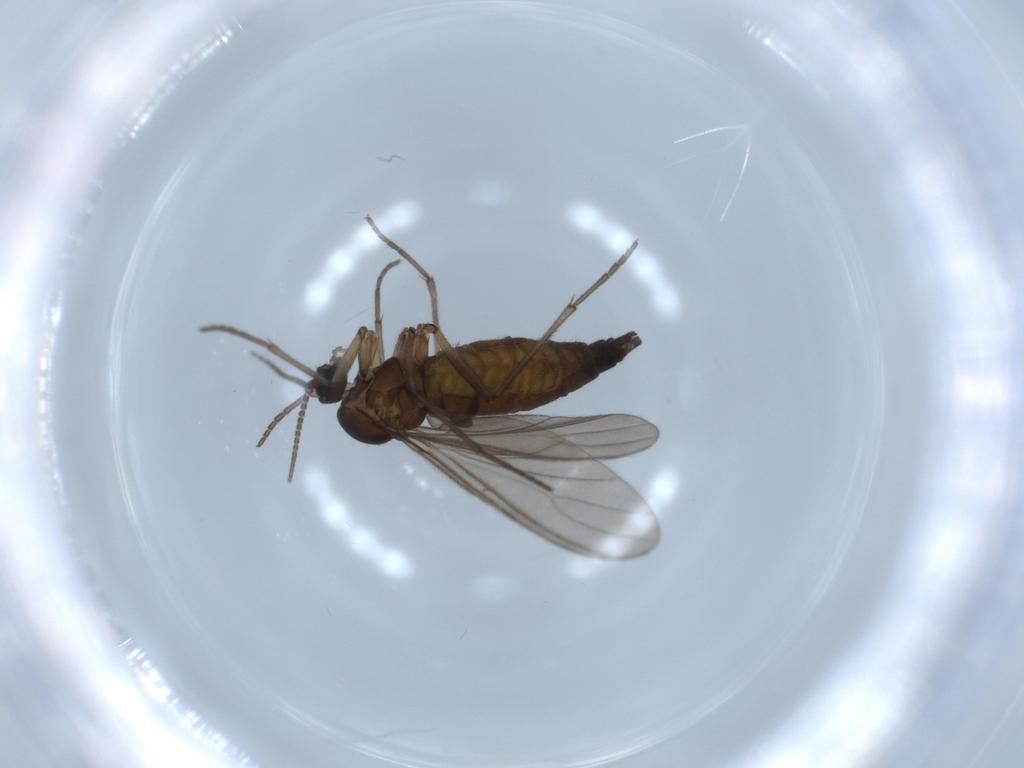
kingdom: Animalia
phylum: Arthropoda
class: Insecta
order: Diptera
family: Sciaridae
